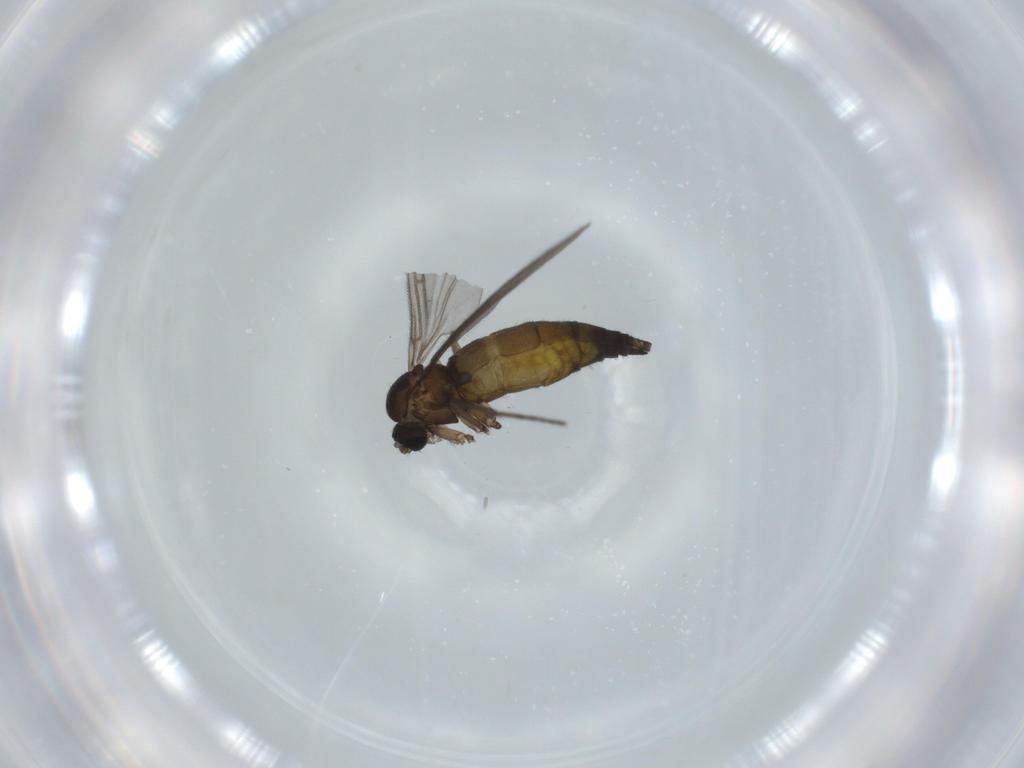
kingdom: Animalia
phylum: Arthropoda
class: Insecta
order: Diptera
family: Sciaridae
